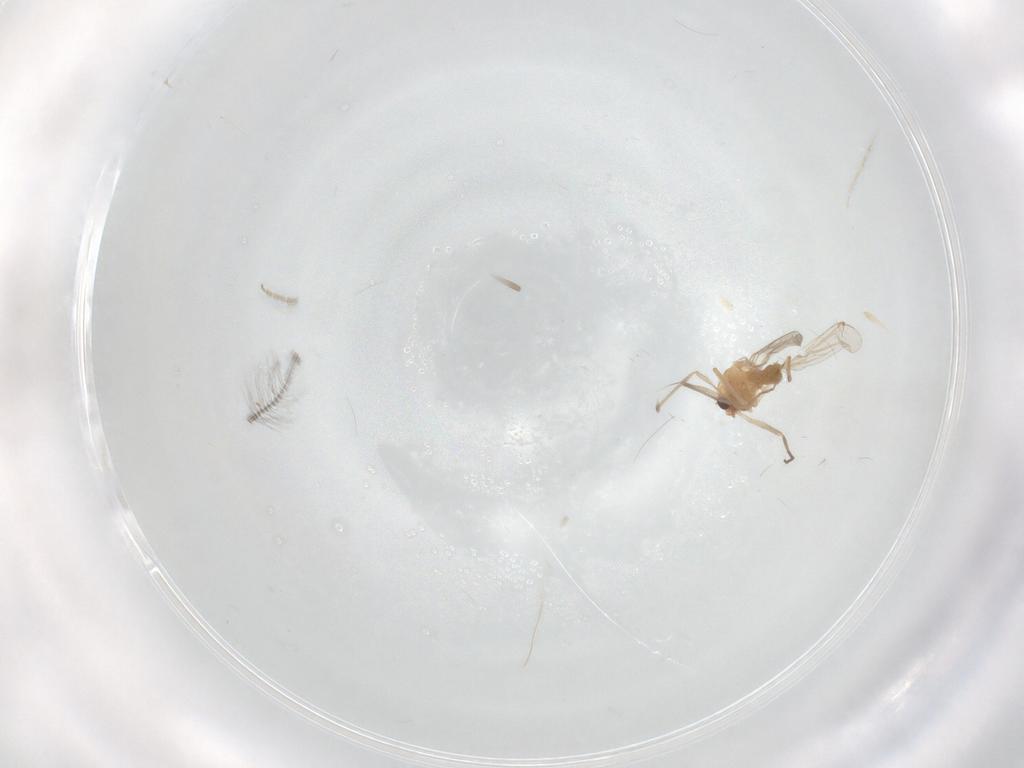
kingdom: Animalia
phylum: Arthropoda
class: Insecta
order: Diptera
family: Chironomidae
